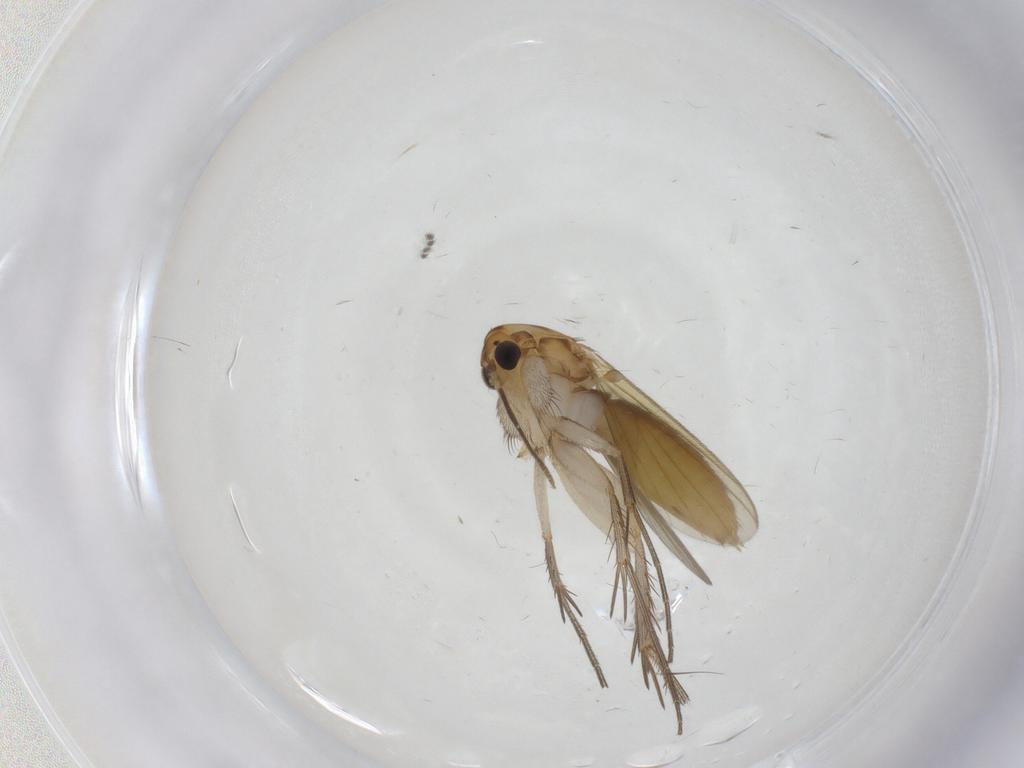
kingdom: Animalia
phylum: Arthropoda
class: Insecta
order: Diptera
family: Mycetophilidae
